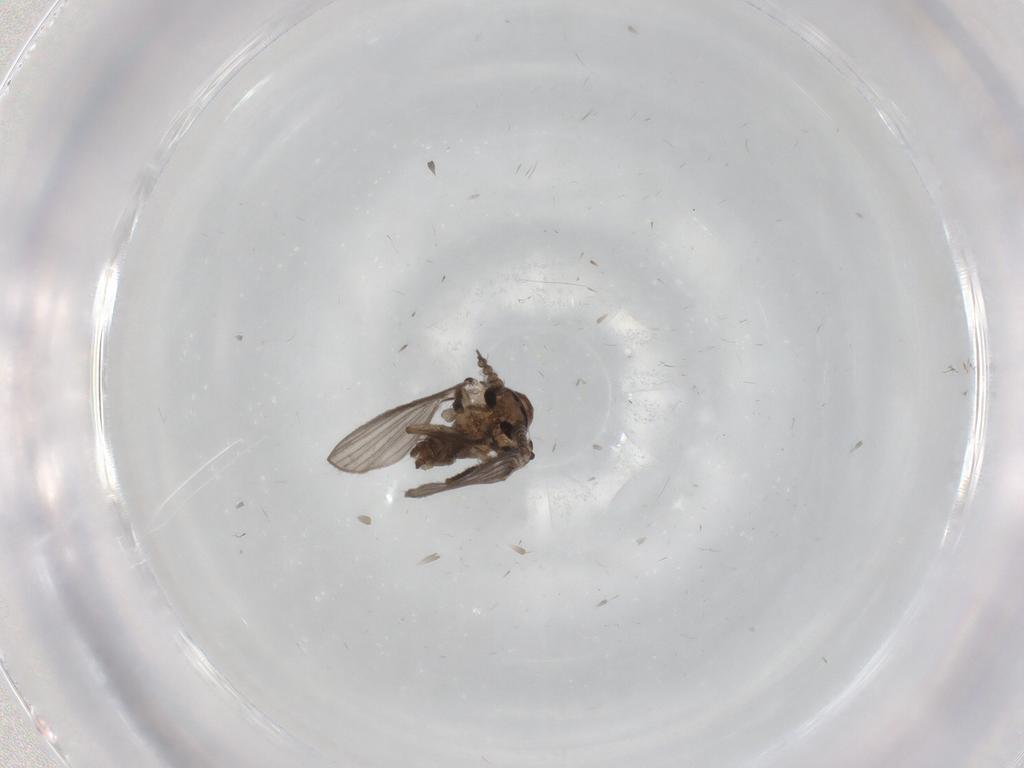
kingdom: Animalia
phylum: Arthropoda
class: Insecta
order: Diptera
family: Psychodidae
